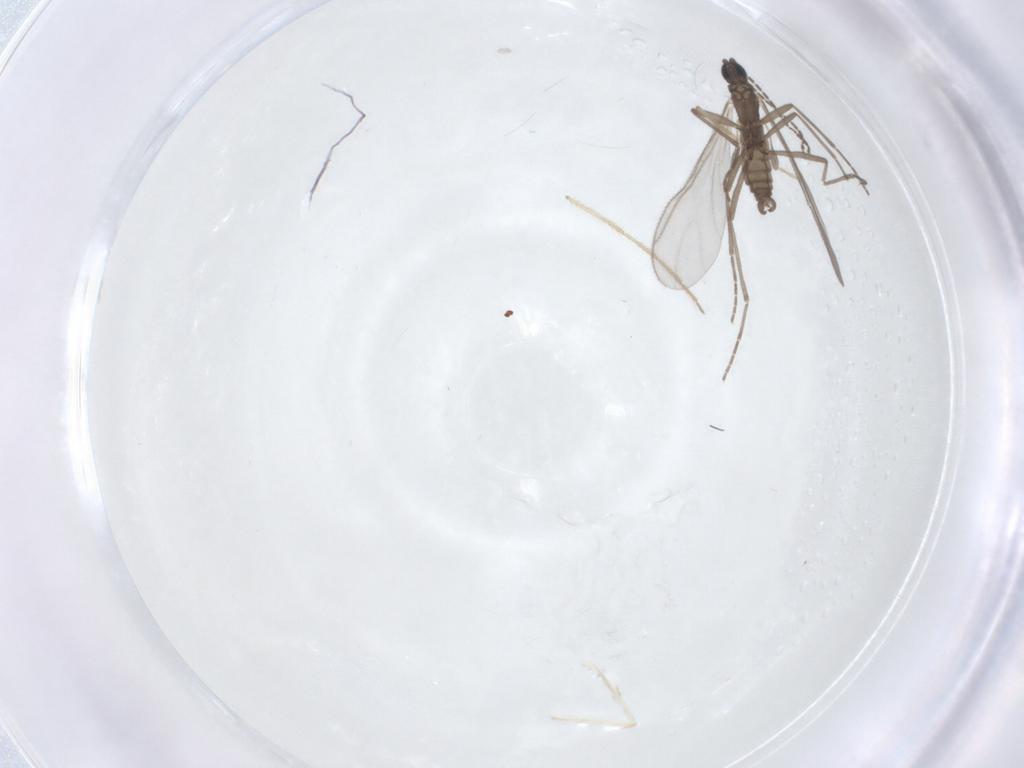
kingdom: Animalia
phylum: Arthropoda
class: Insecta
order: Diptera
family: Sciaridae
